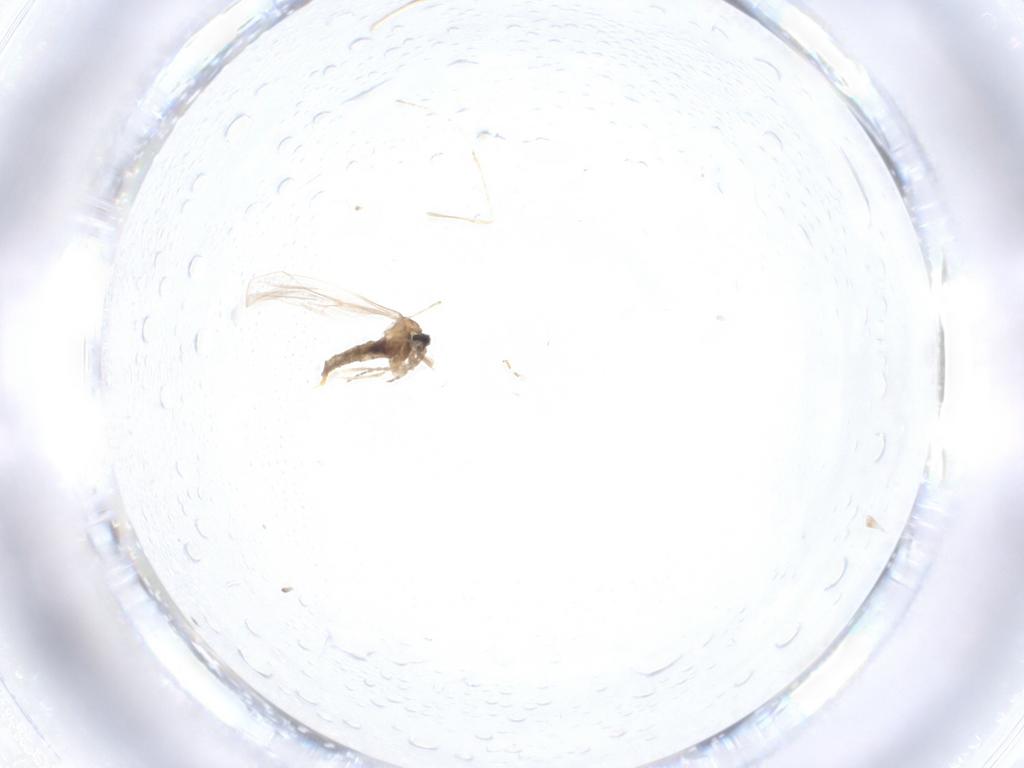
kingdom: Animalia
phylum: Arthropoda
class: Insecta
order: Diptera
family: Cecidomyiidae
